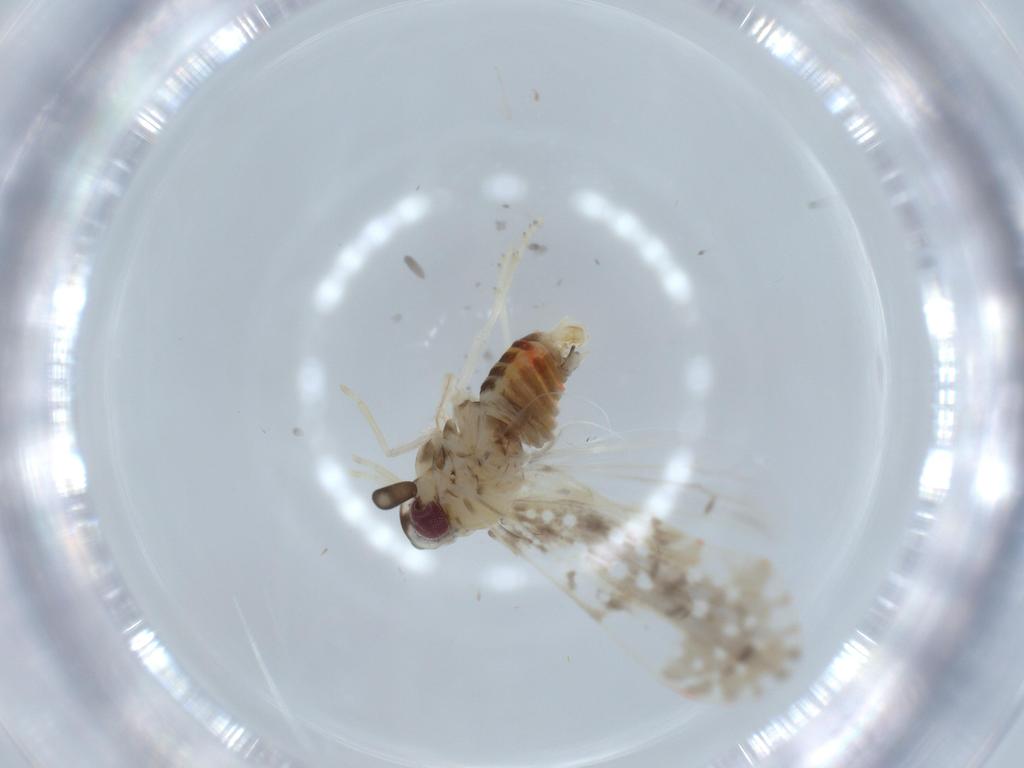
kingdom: Animalia
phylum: Arthropoda
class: Insecta
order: Hemiptera
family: Derbidae
